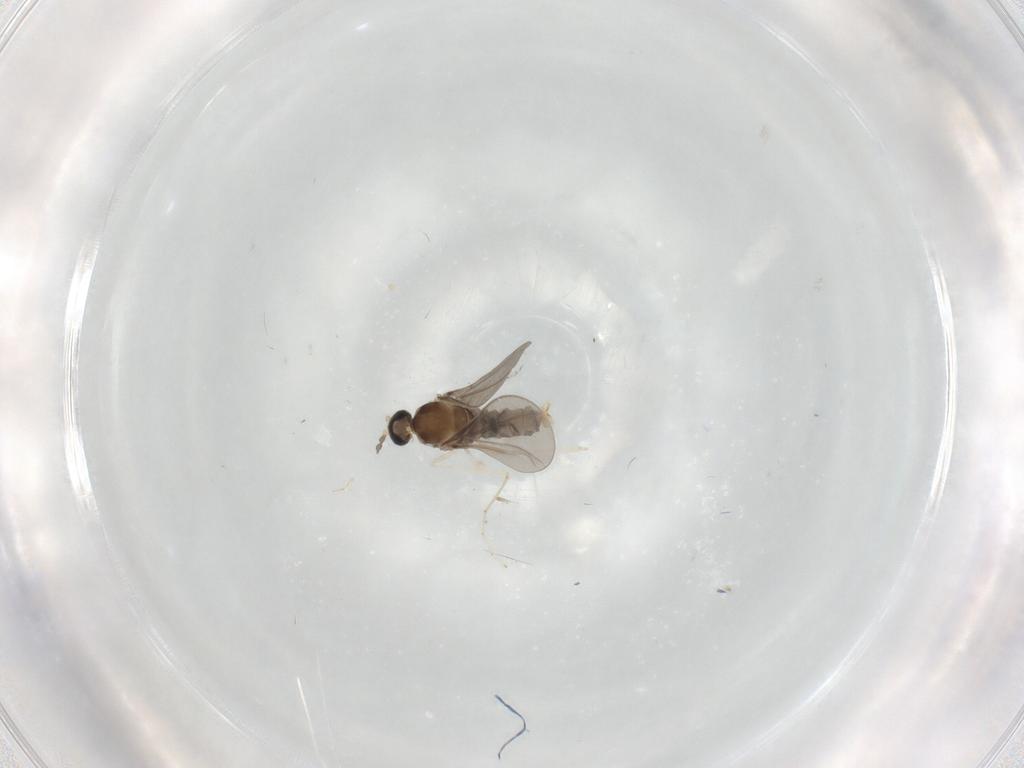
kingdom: Animalia
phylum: Arthropoda
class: Insecta
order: Diptera
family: Cecidomyiidae
